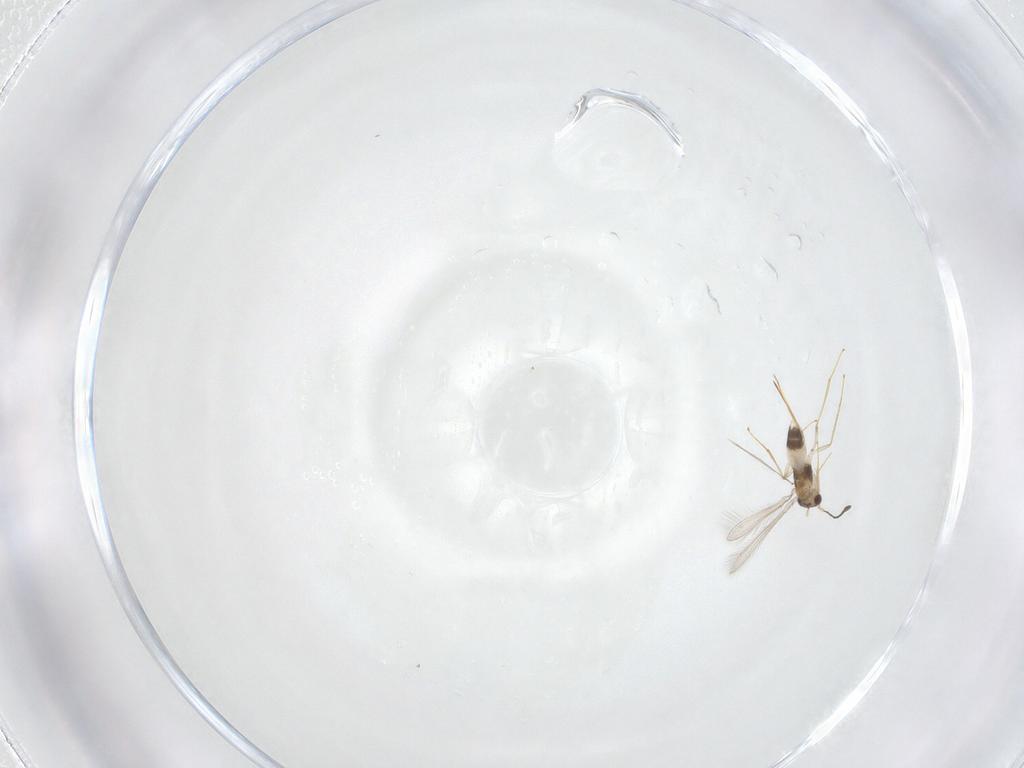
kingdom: Animalia
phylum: Arthropoda
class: Insecta
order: Hymenoptera
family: Mymaridae
